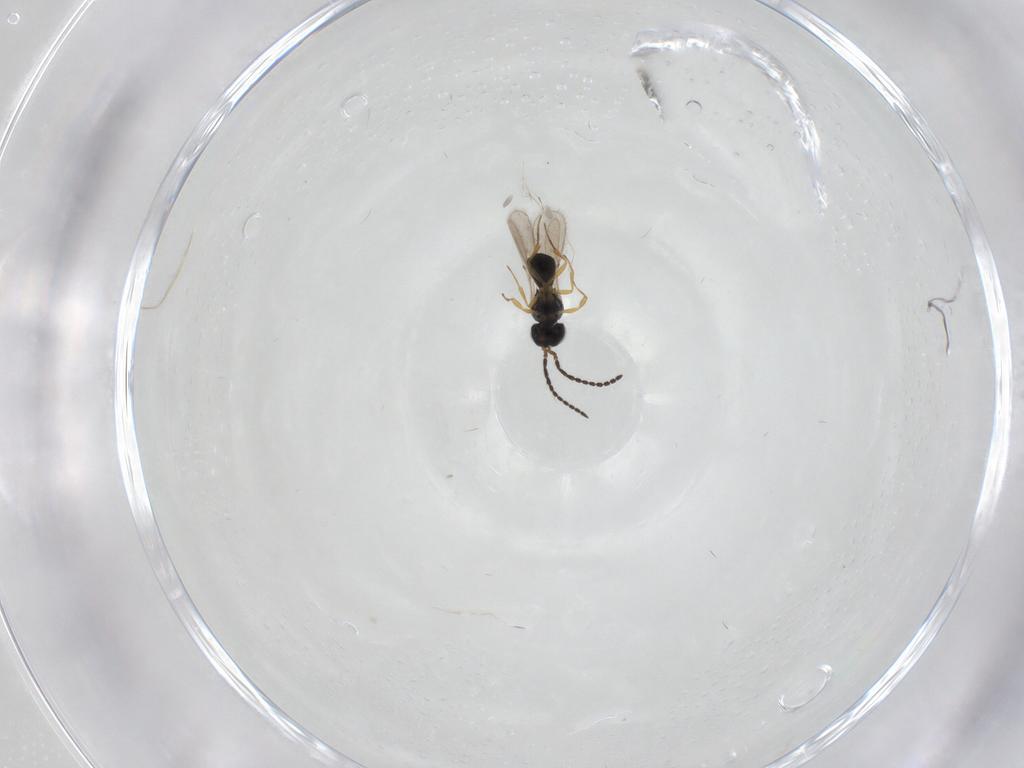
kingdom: Animalia
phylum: Arthropoda
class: Insecta
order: Hymenoptera
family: Scelionidae
